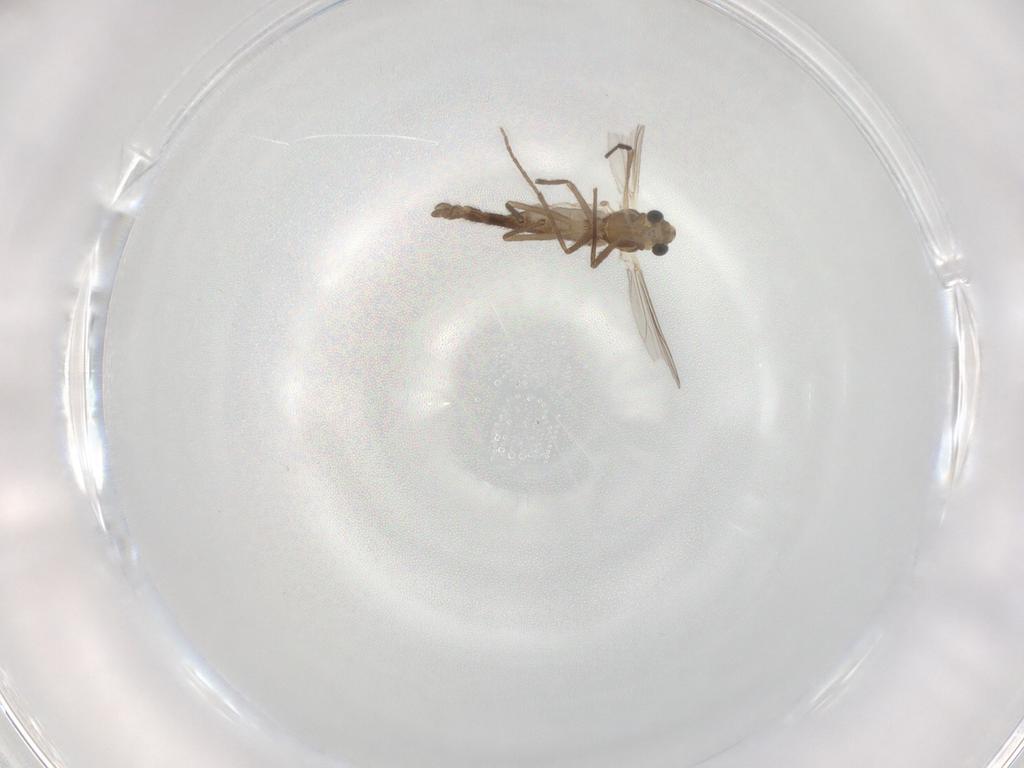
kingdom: Animalia
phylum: Arthropoda
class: Insecta
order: Diptera
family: Chironomidae
